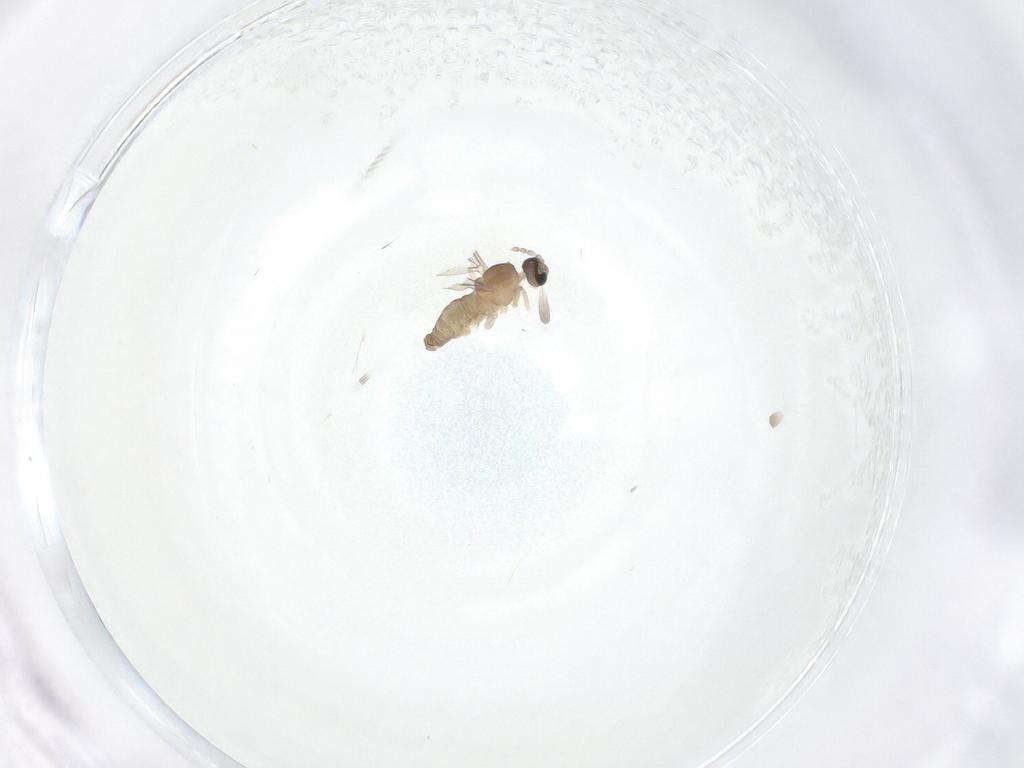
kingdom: Animalia
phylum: Arthropoda
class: Insecta
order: Diptera
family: Cecidomyiidae
